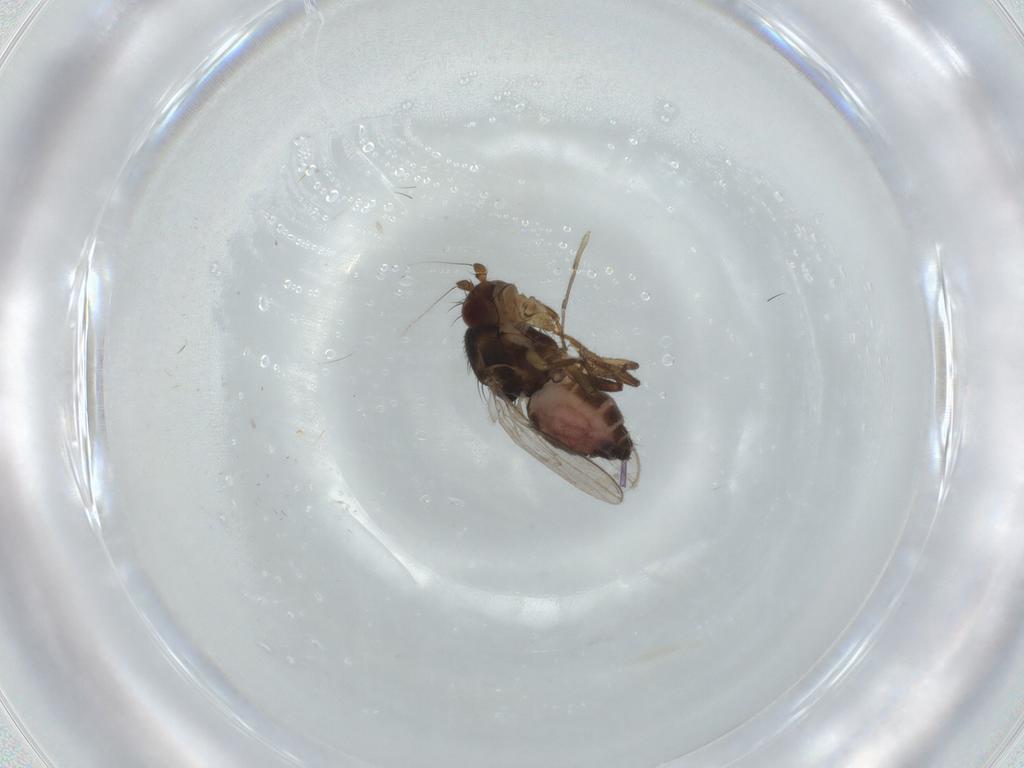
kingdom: Animalia
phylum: Arthropoda
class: Insecta
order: Diptera
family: Sphaeroceridae
